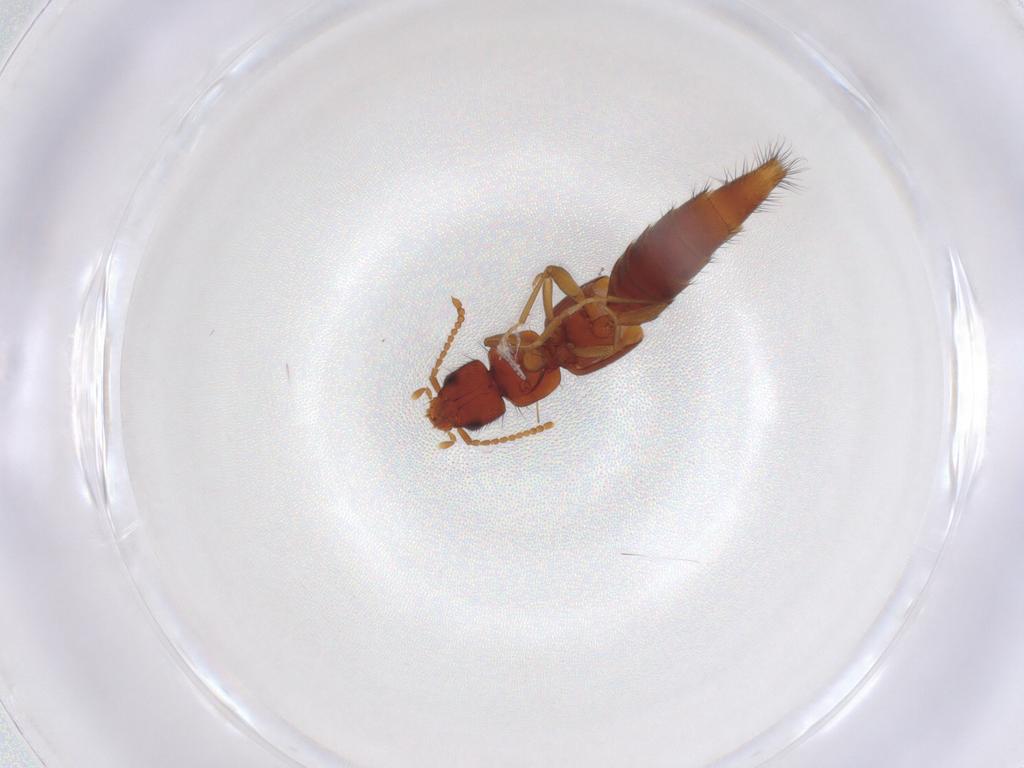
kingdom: Animalia
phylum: Arthropoda
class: Insecta
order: Coleoptera
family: Staphylinidae
